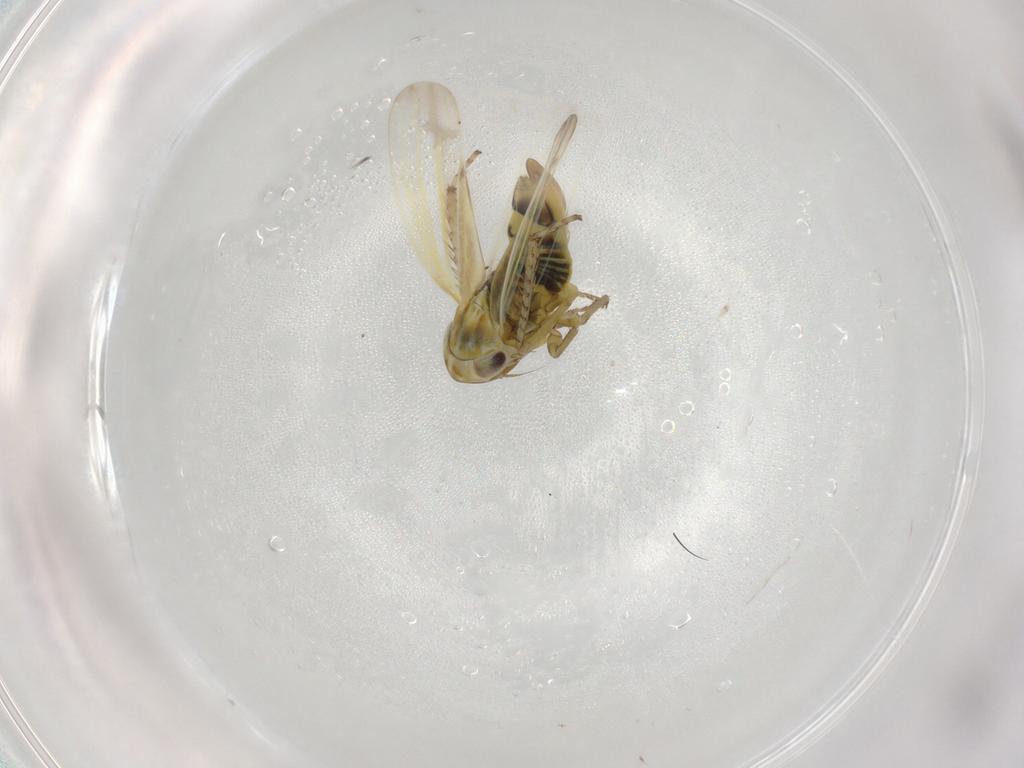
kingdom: Animalia
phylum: Arthropoda
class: Insecta
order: Hemiptera
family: Cicadellidae
